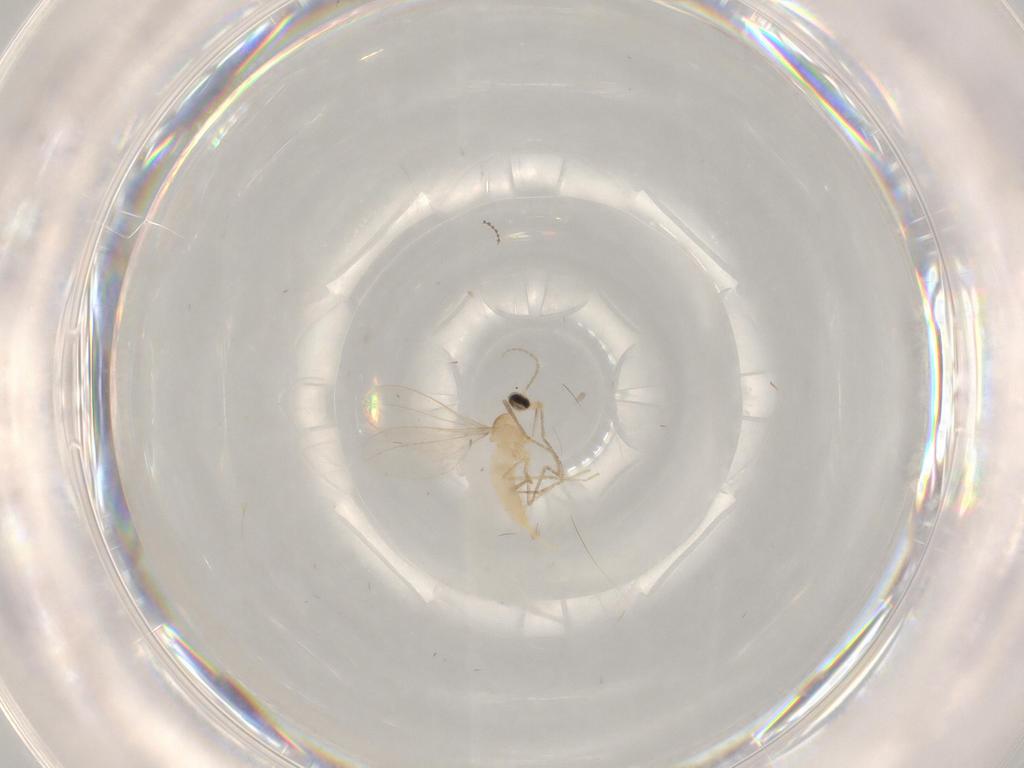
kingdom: Animalia
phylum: Arthropoda
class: Insecta
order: Diptera
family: Cecidomyiidae
